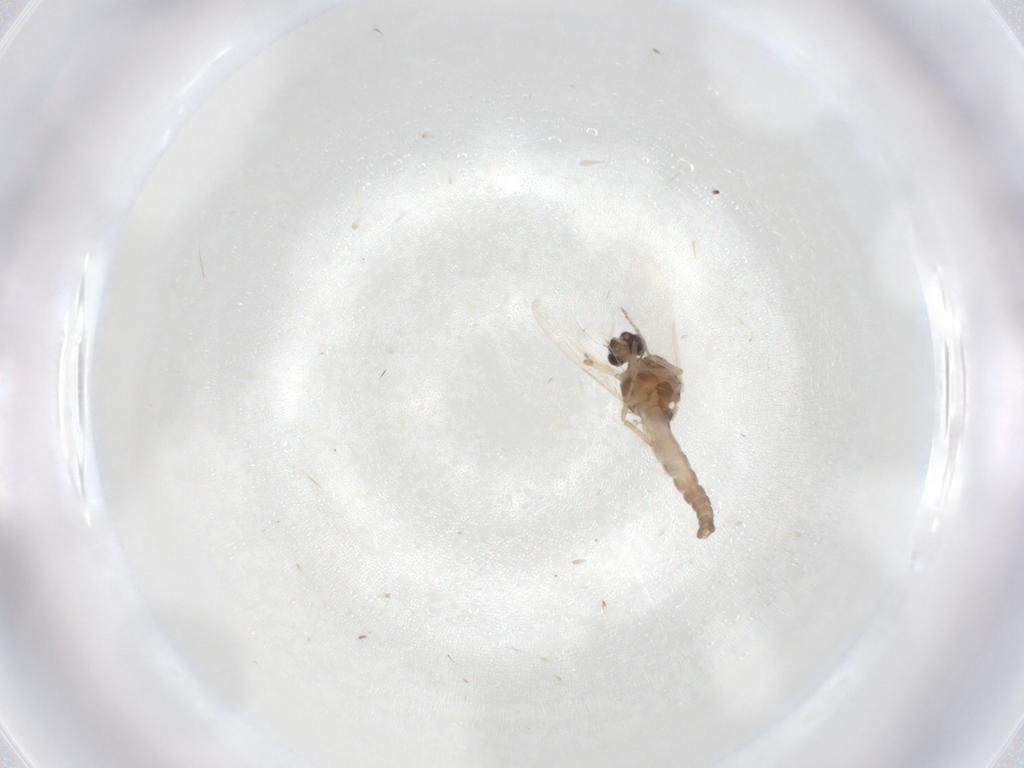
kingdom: Animalia
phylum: Arthropoda
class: Insecta
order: Diptera
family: Ceratopogonidae
